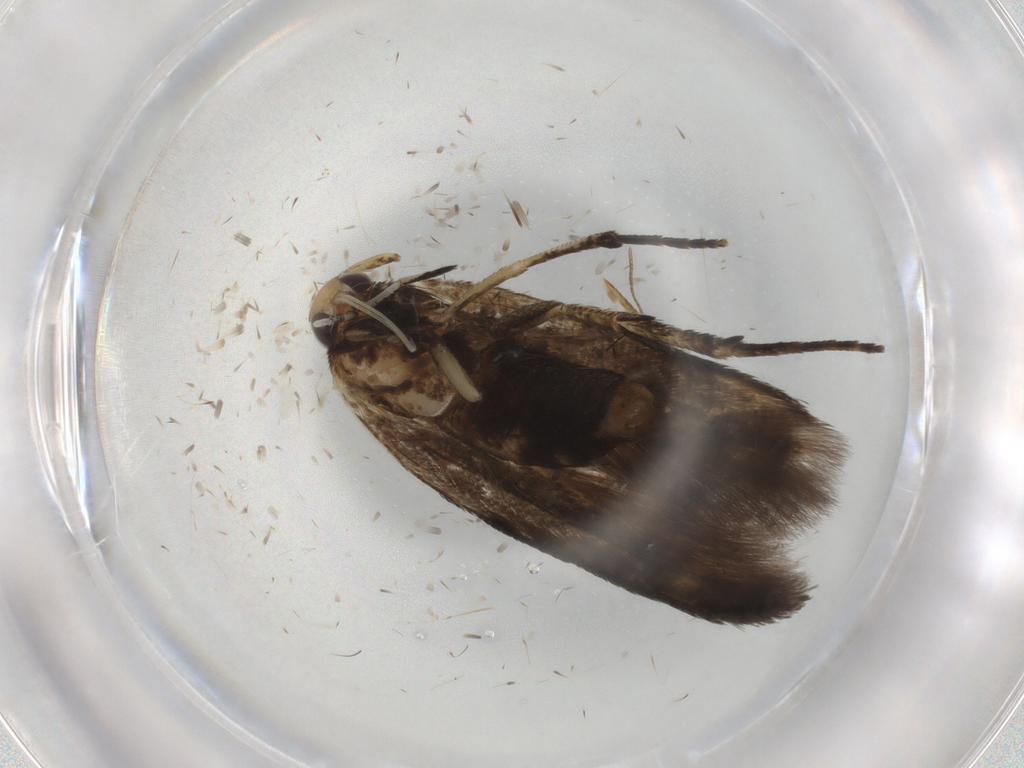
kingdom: Animalia
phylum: Arthropoda
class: Insecta
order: Lepidoptera
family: Cosmopterigidae
